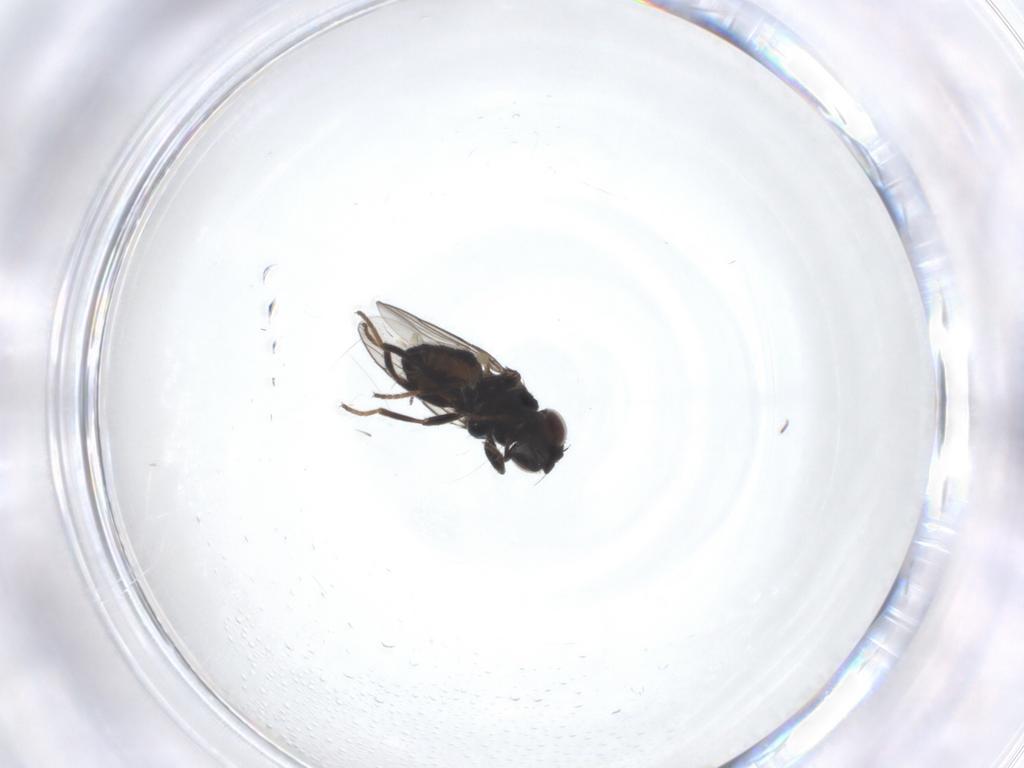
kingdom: Animalia
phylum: Arthropoda
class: Insecta
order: Diptera
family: Chloropidae
